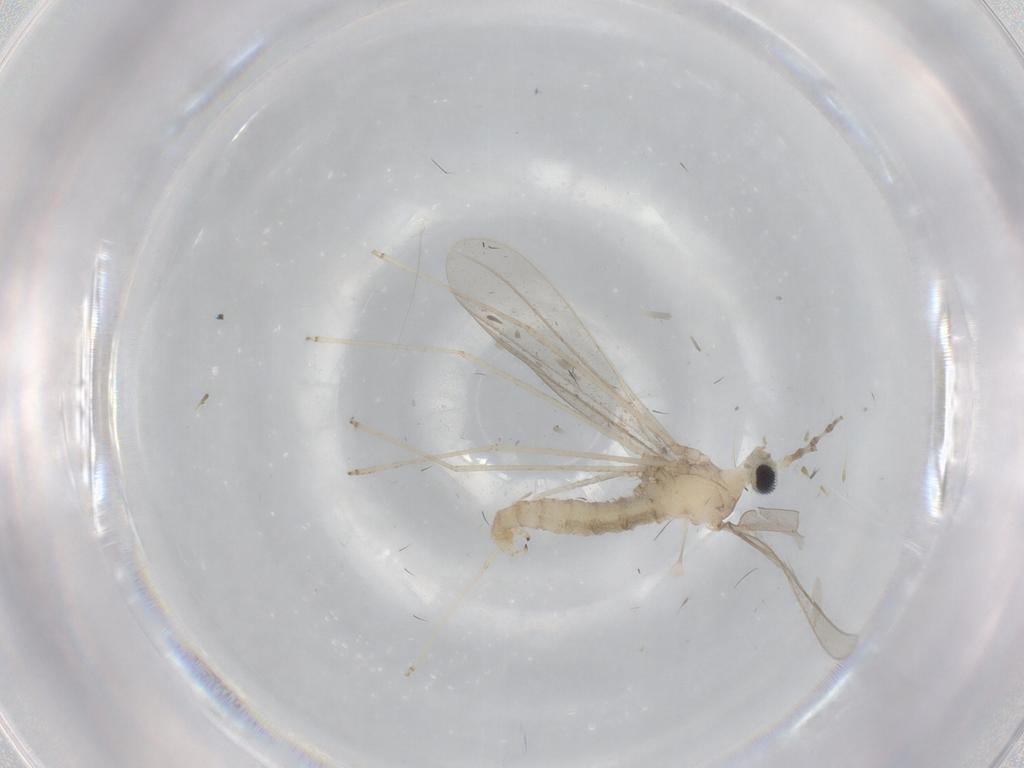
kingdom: Animalia
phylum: Arthropoda
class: Insecta
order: Diptera
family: Cecidomyiidae
